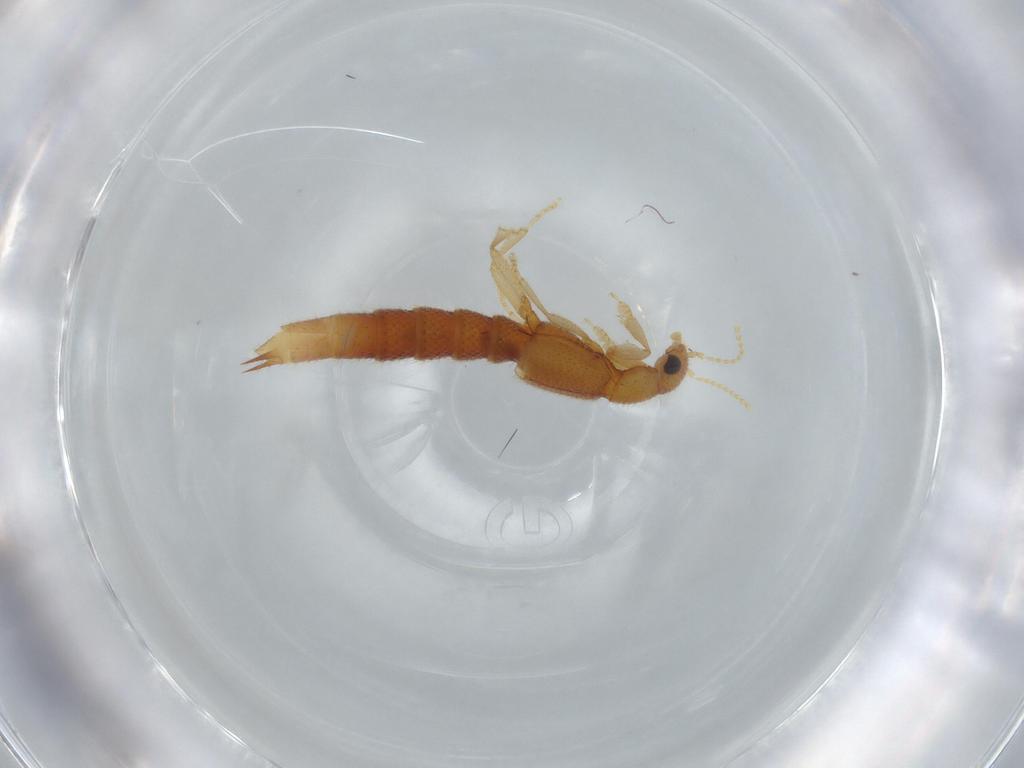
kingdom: Animalia
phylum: Arthropoda
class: Insecta
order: Coleoptera
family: Staphylinidae
